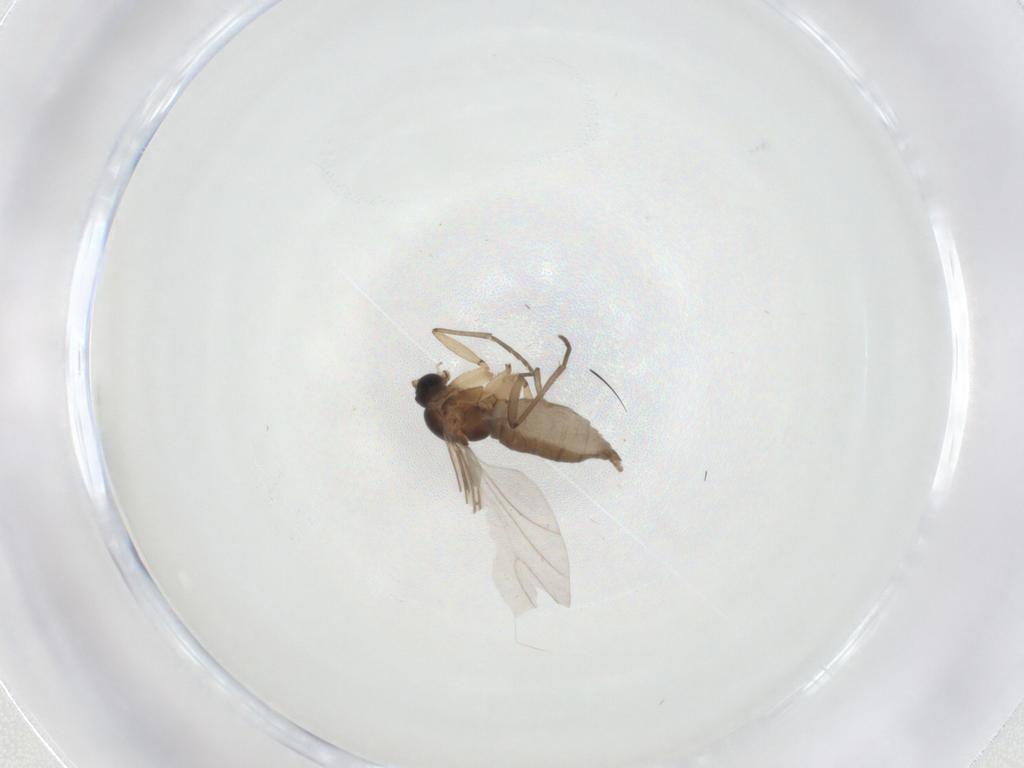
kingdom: Animalia
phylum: Arthropoda
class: Insecta
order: Diptera
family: Sciaridae
